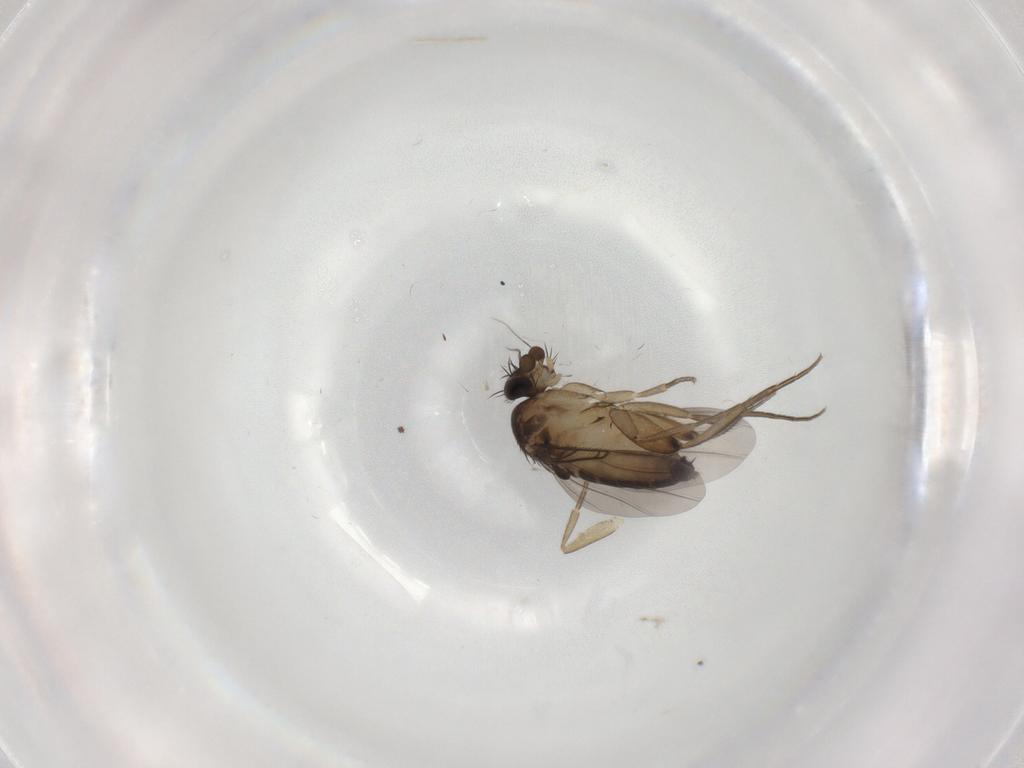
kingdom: Animalia
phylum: Arthropoda
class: Insecta
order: Diptera
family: Phoridae
